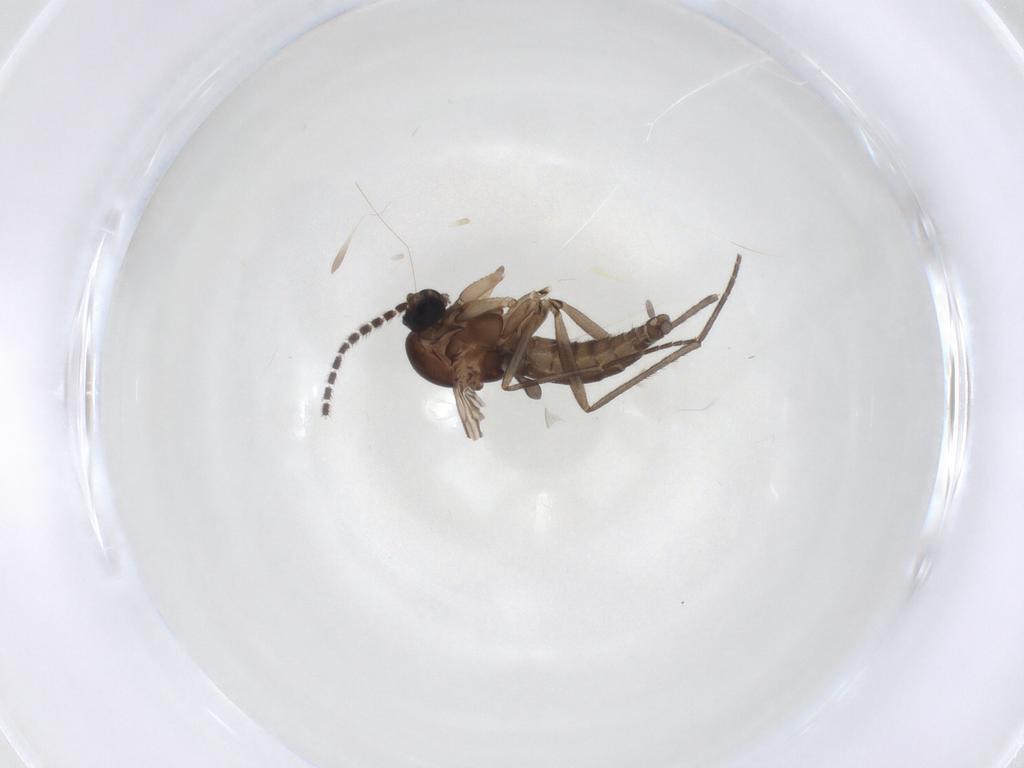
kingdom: Animalia
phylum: Arthropoda
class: Insecta
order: Diptera
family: Sciaridae
